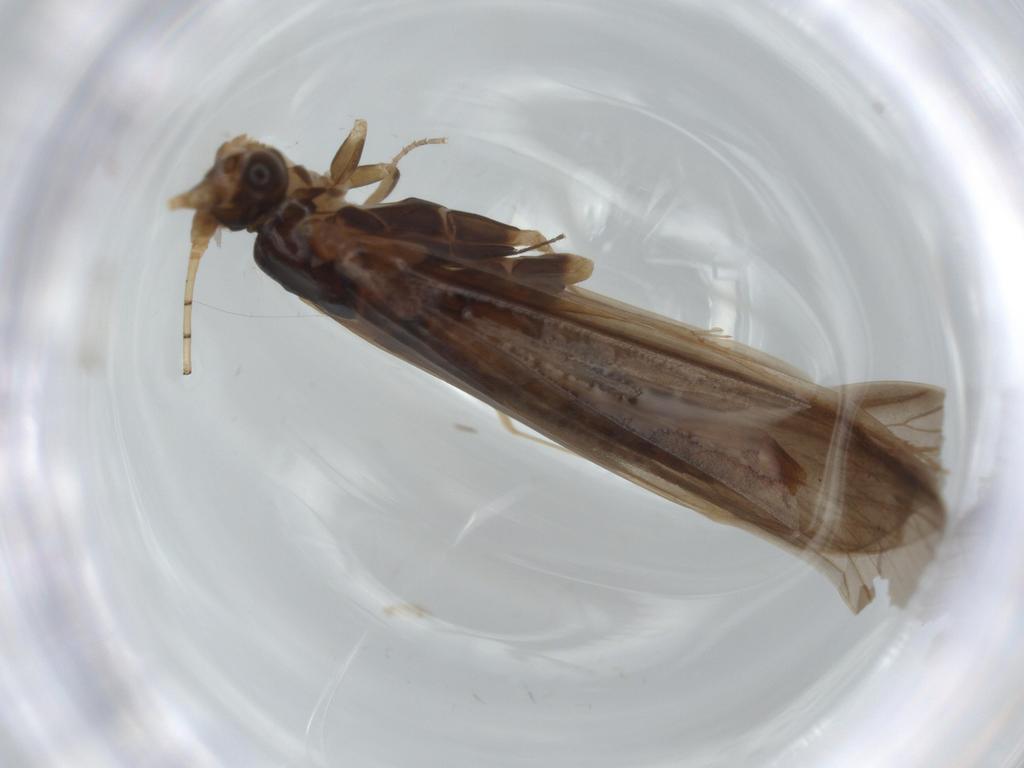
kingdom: Animalia
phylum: Arthropoda
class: Insecta
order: Trichoptera
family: Leptoceridae
